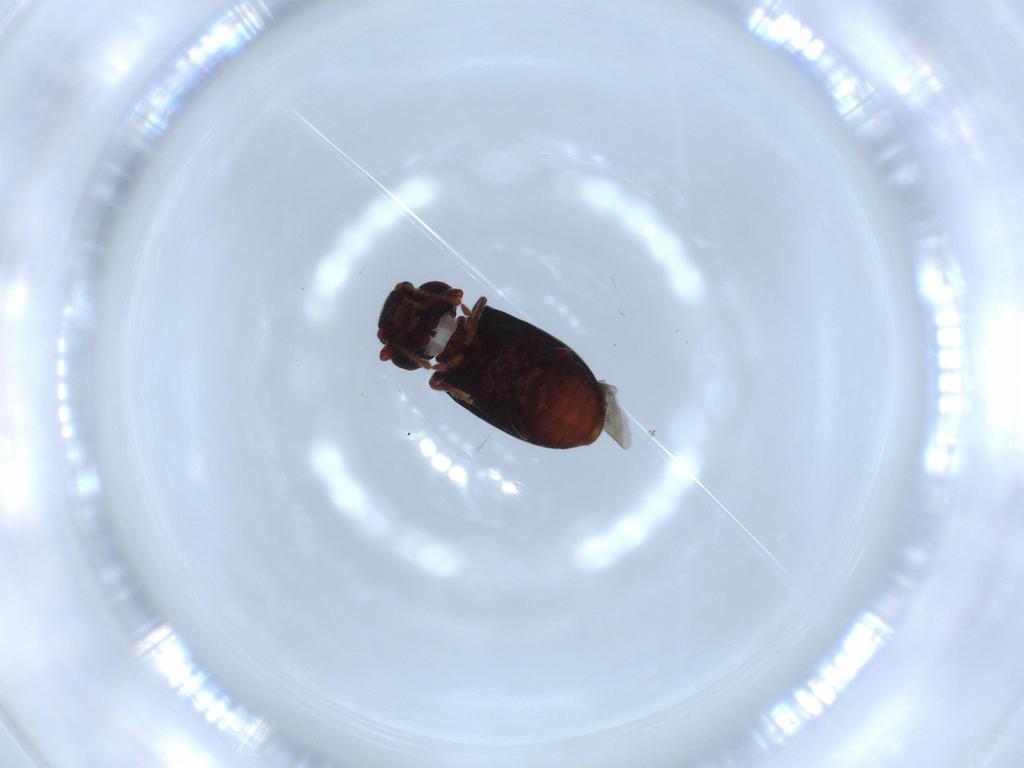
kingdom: Animalia
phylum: Arthropoda
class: Insecta
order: Coleoptera
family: Ptinidae
